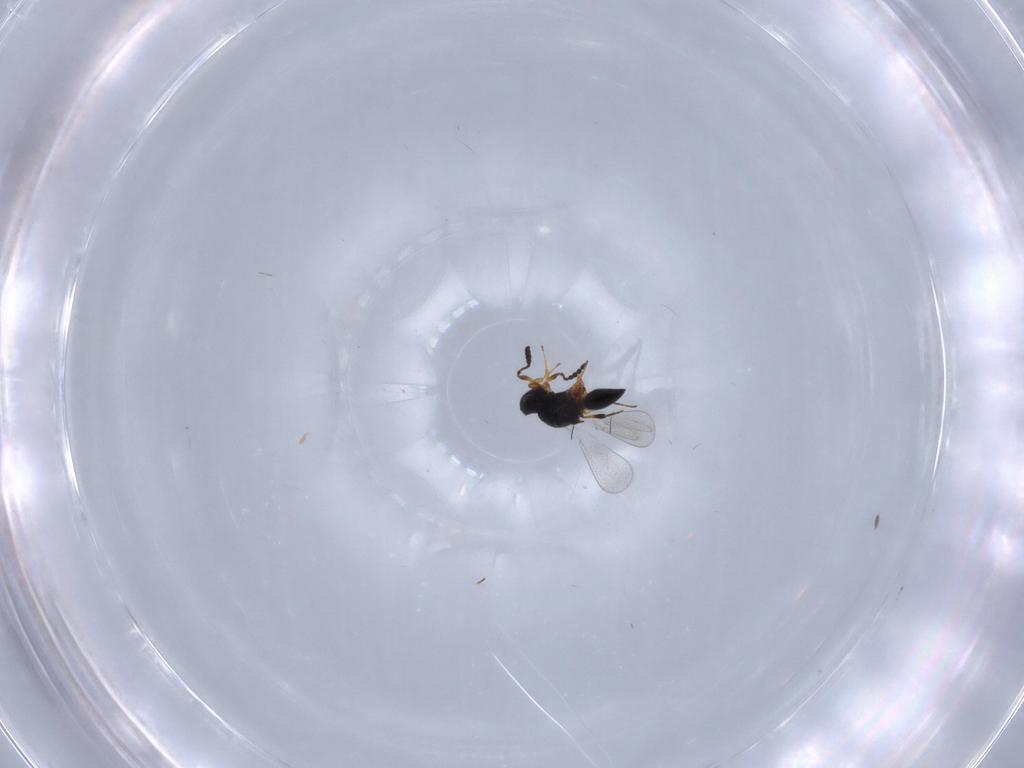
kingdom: Animalia
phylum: Arthropoda
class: Insecta
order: Hymenoptera
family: Platygastridae
